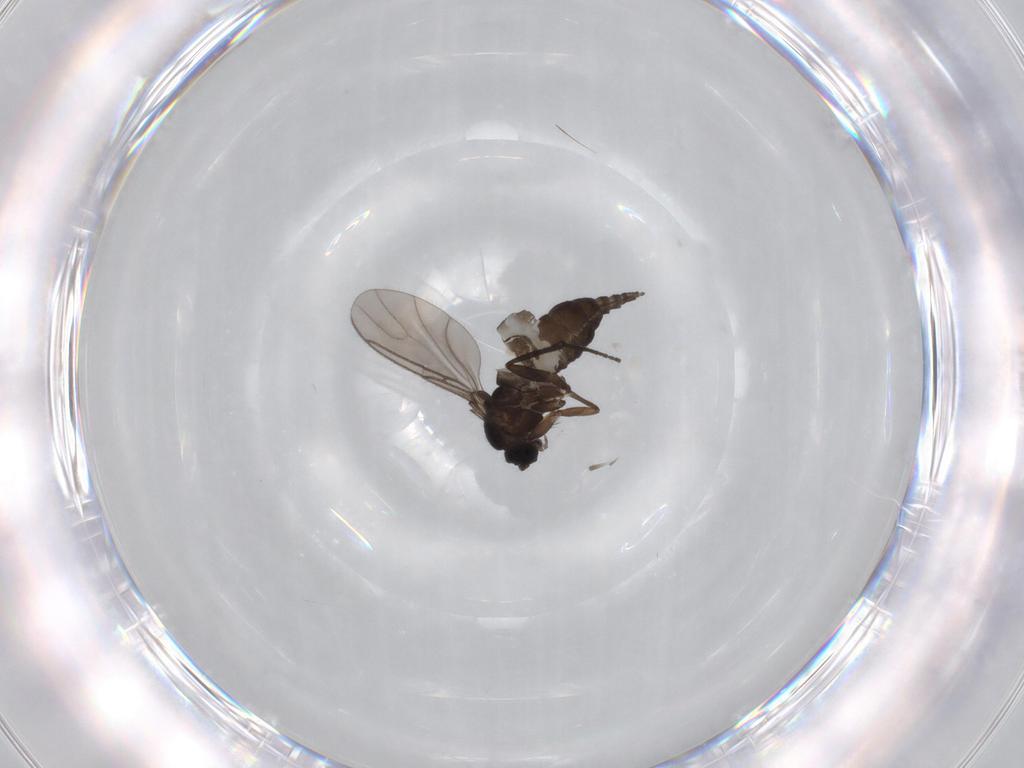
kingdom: Animalia
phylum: Arthropoda
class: Insecta
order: Diptera
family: Sciaridae
